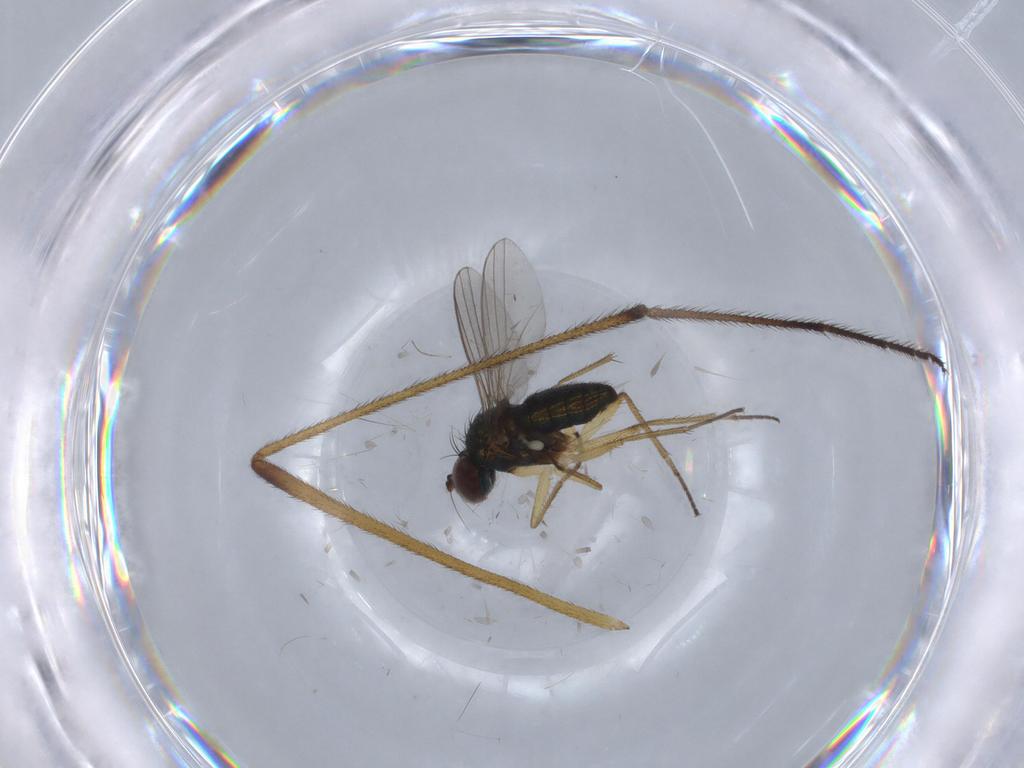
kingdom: Animalia
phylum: Arthropoda
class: Insecta
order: Diptera
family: Limoniidae
